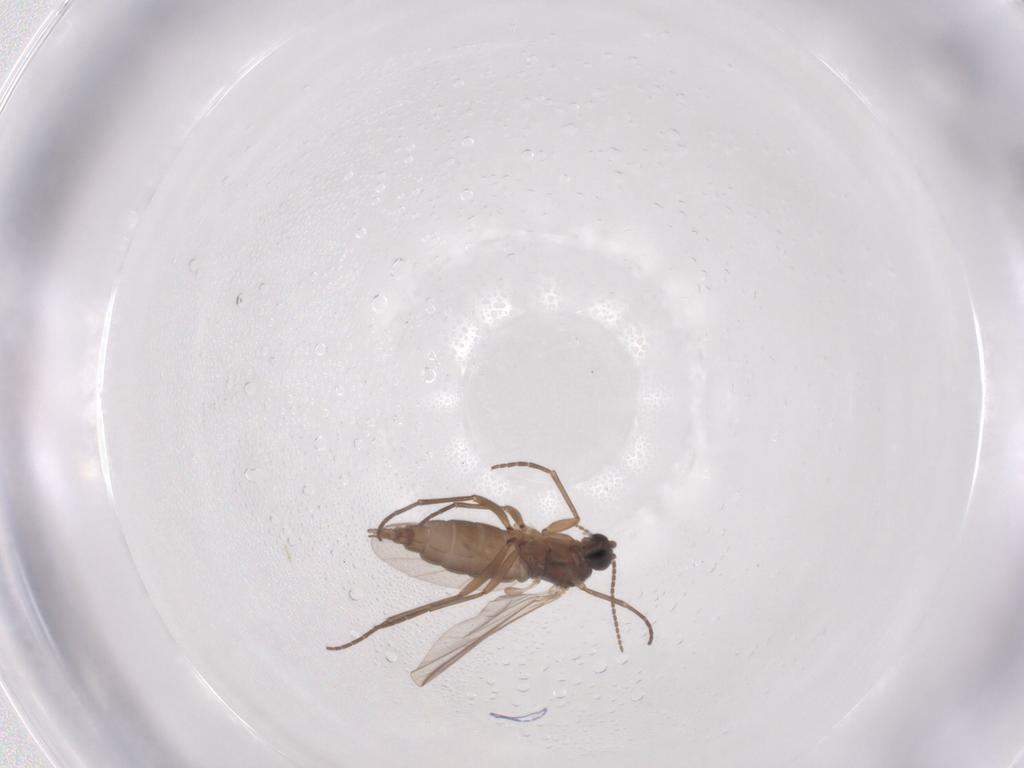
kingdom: Animalia
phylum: Arthropoda
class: Insecta
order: Diptera
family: Sciaridae
